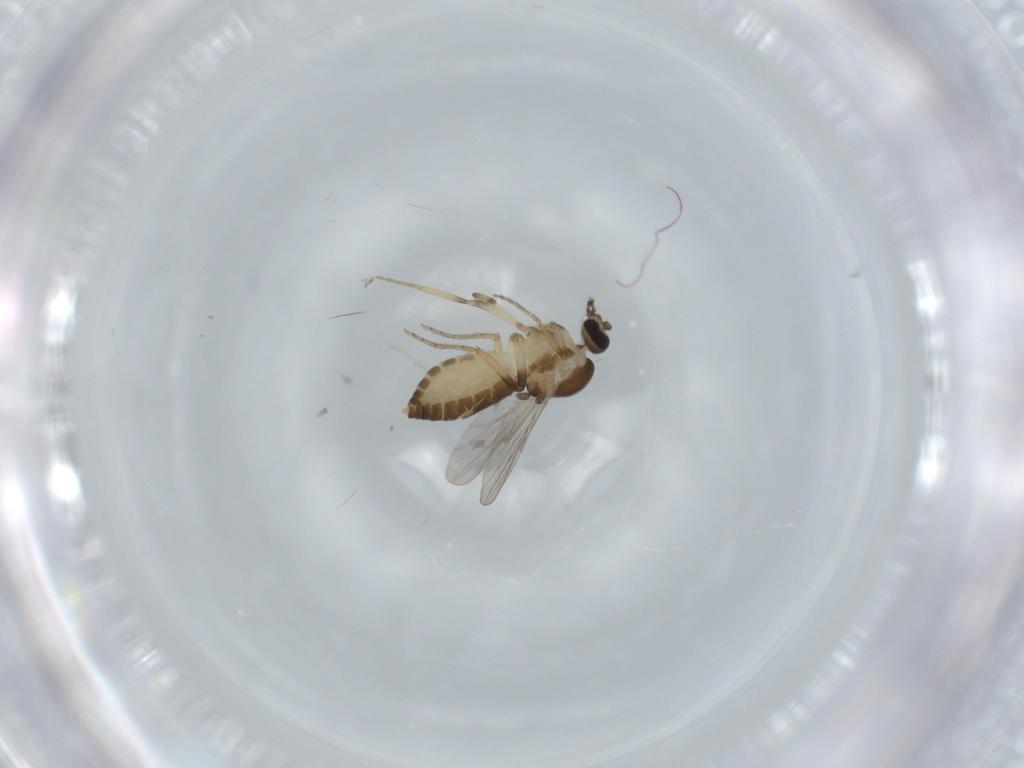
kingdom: Animalia
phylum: Arthropoda
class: Insecta
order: Diptera
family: Ceratopogonidae
